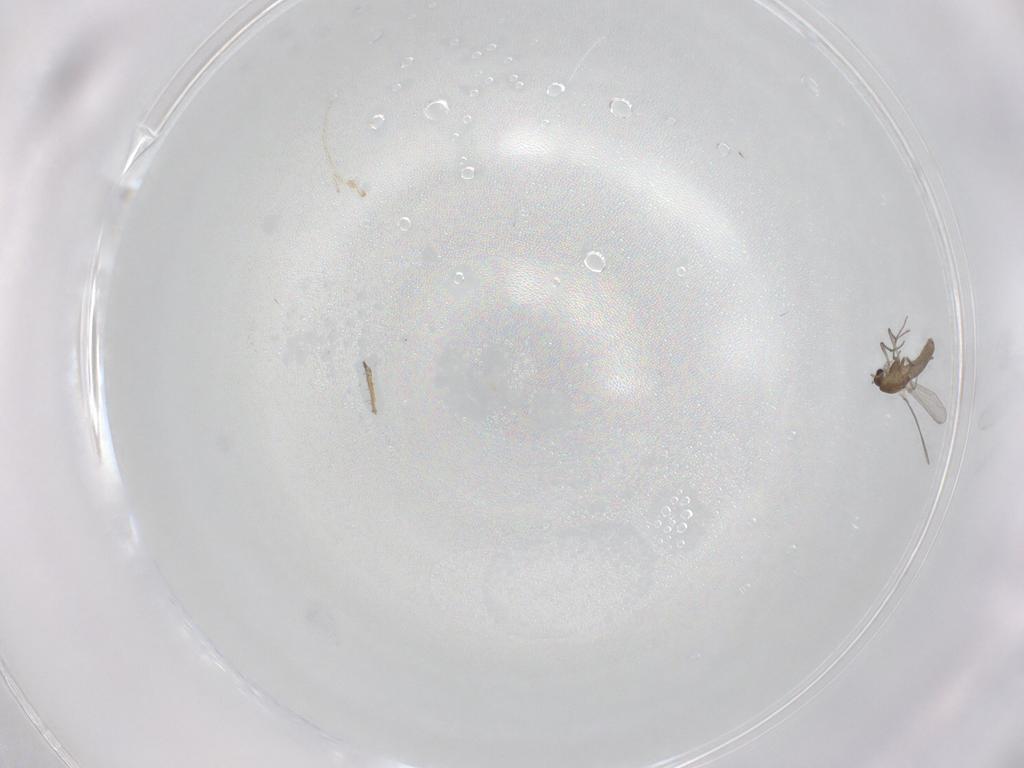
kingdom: Animalia
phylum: Arthropoda
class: Insecta
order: Diptera
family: Chironomidae
